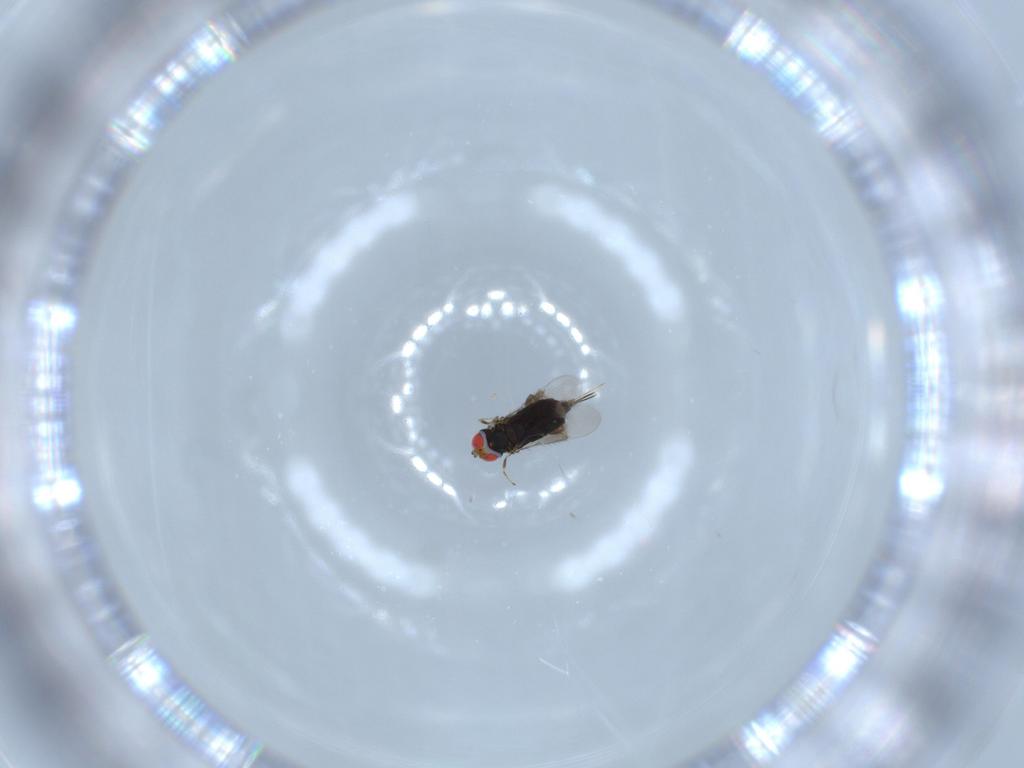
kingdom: Animalia
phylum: Arthropoda
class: Insecta
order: Hymenoptera
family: Azotidae
